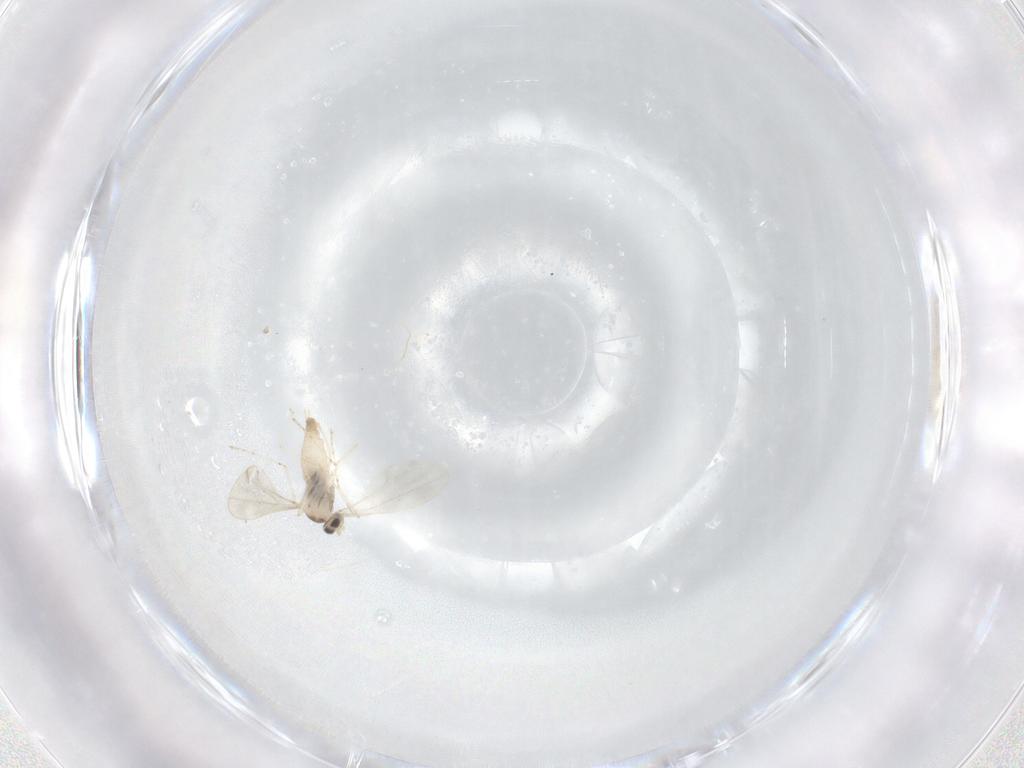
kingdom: Animalia
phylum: Arthropoda
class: Insecta
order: Diptera
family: Cecidomyiidae
